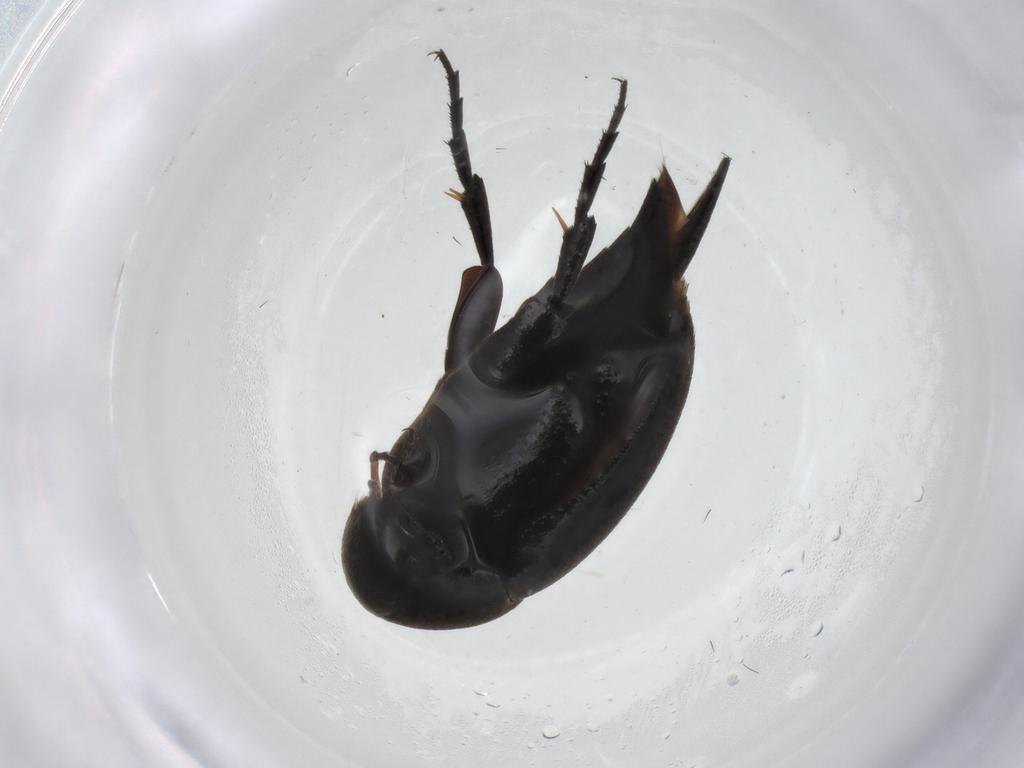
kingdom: Animalia
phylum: Arthropoda
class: Insecta
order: Coleoptera
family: Mordellidae
